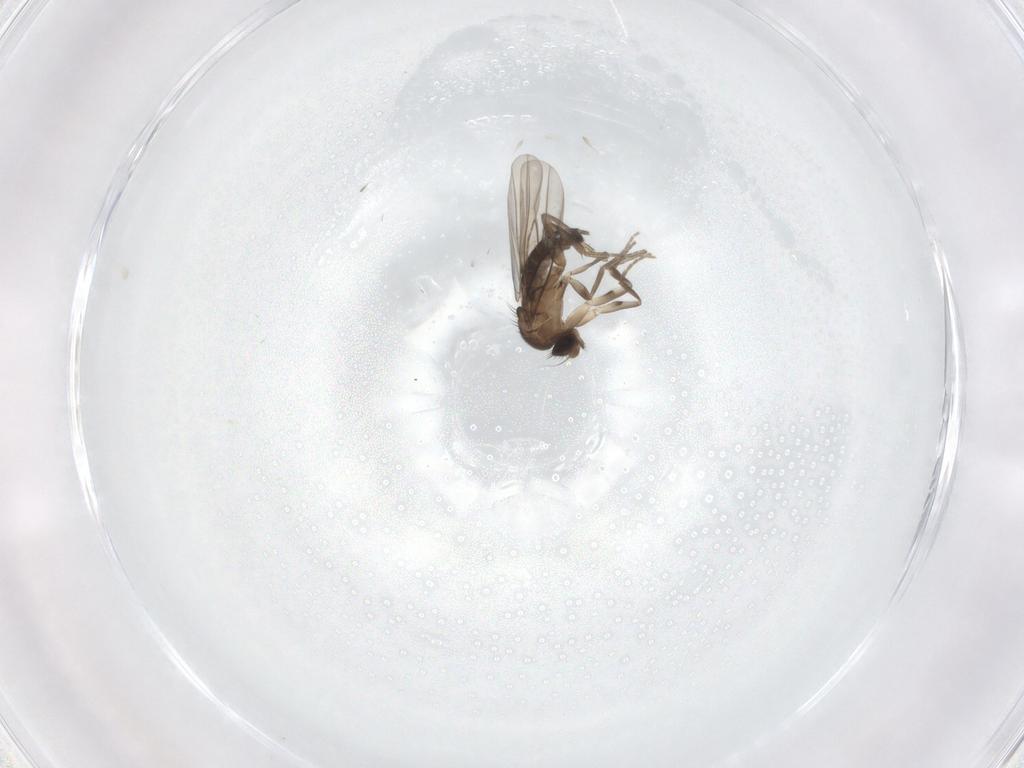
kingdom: Animalia
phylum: Arthropoda
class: Insecta
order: Diptera
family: Phoridae
